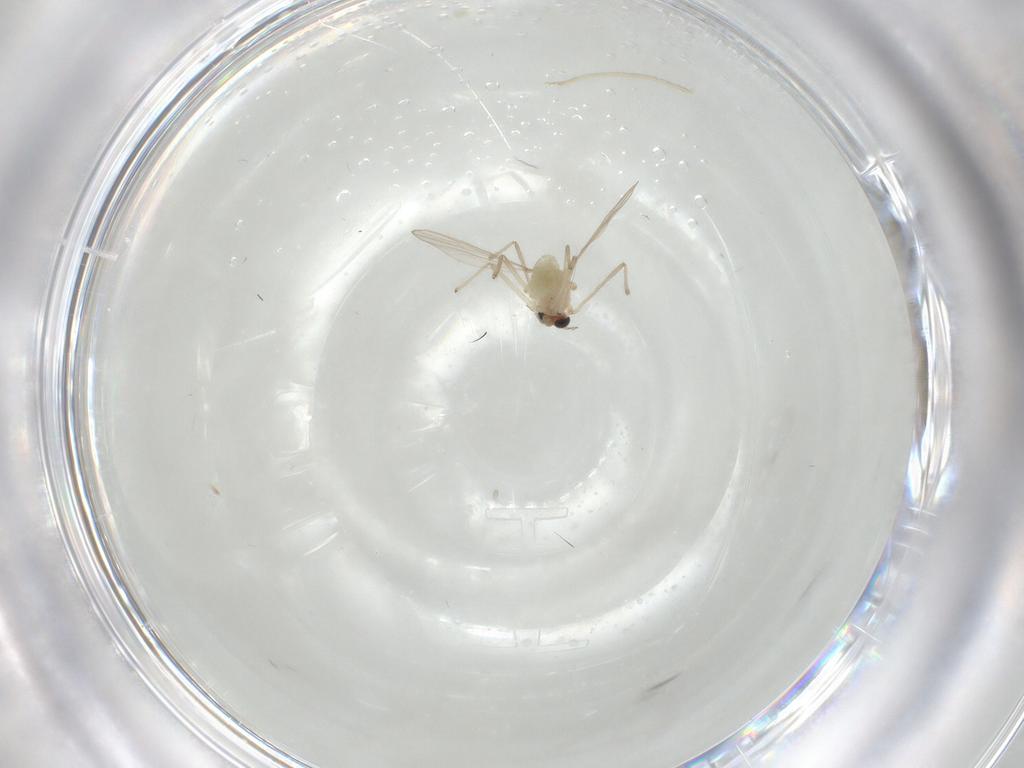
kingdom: Animalia
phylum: Arthropoda
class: Insecta
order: Diptera
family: Chironomidae
